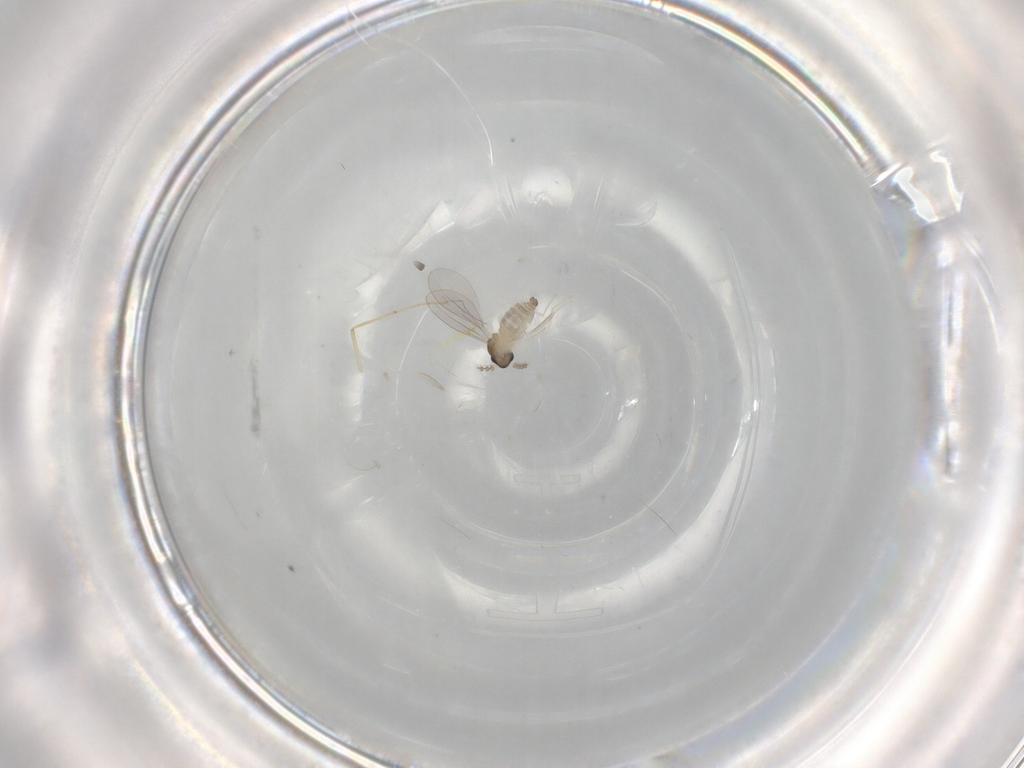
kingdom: Animalia
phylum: Arthropoda
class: Insecta
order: Diptera
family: Chironomidae
